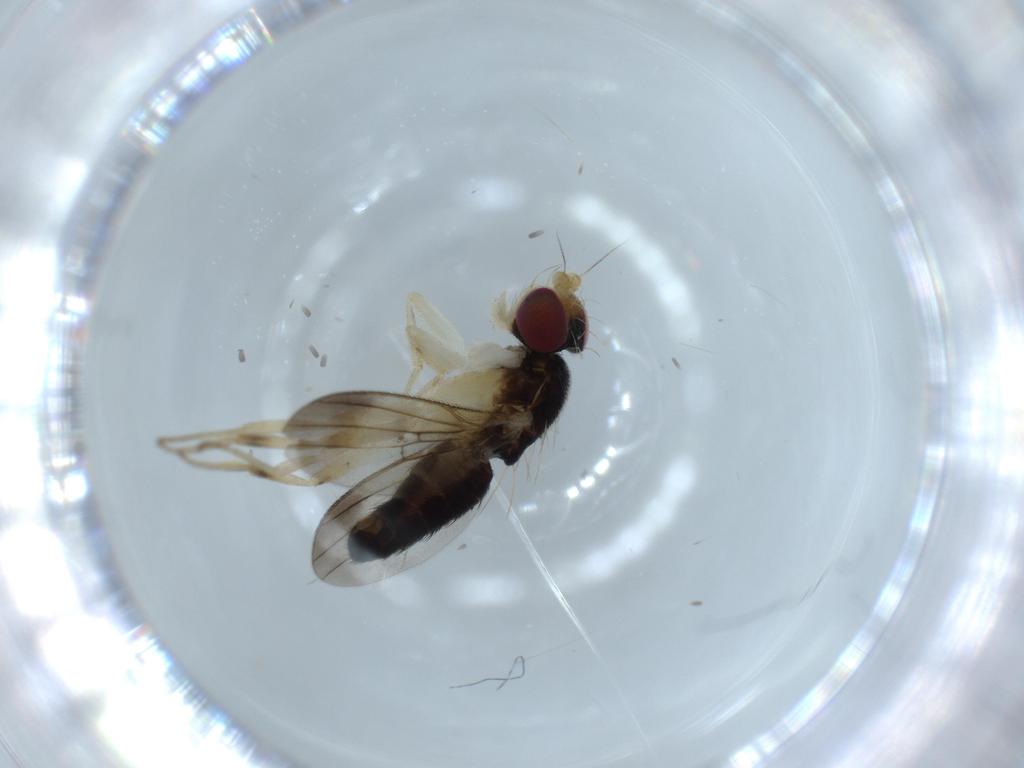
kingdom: Animalia
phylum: Arthropoda
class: Insecta
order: Diptera
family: Clusiidae
